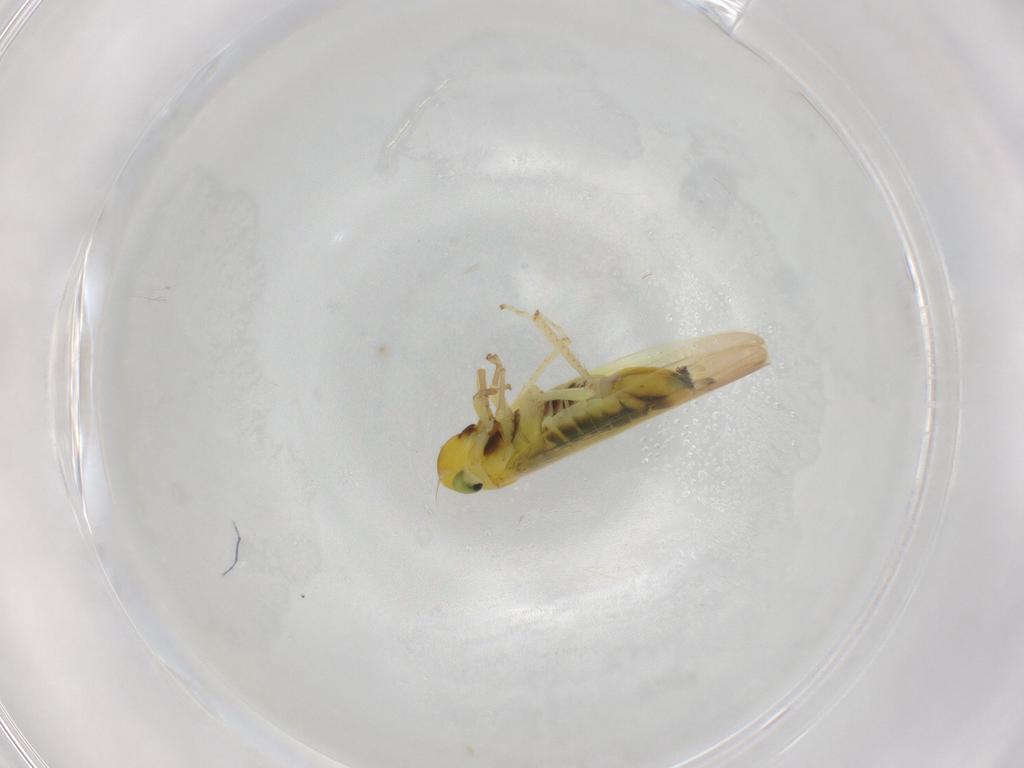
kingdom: Animalia
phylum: Arthropoda
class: Insecta
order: Hemiptera
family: Cicadellidae
